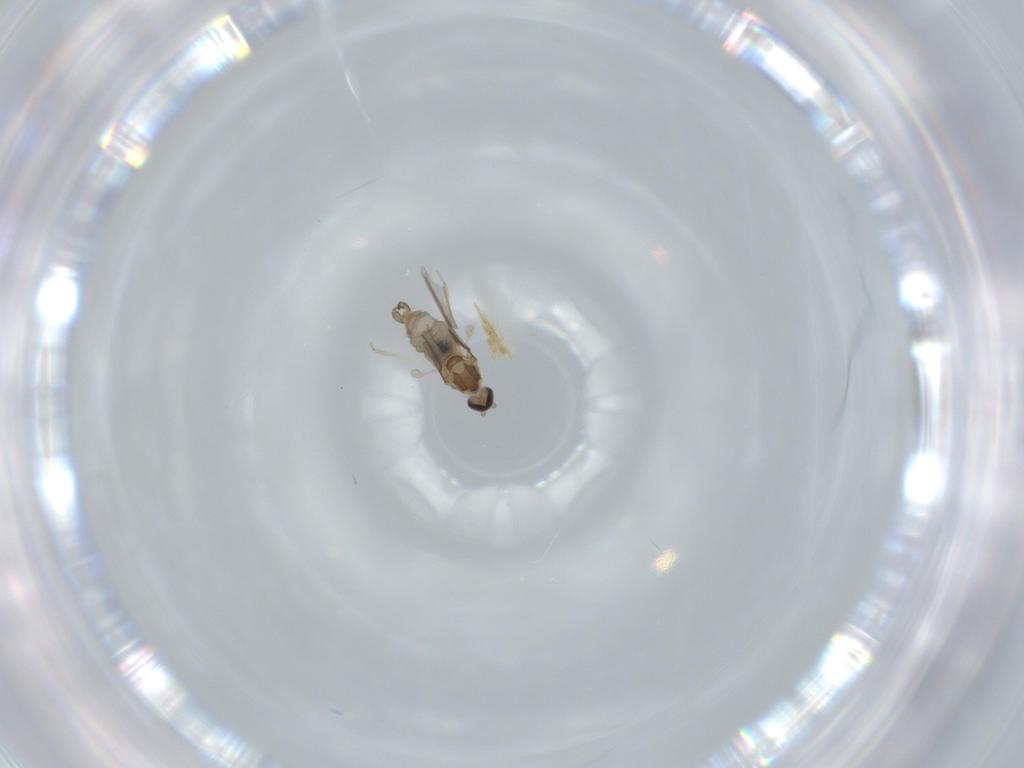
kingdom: Animalia
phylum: Arthropoda
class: Insecta
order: Diptera
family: Cecidomyiidae
